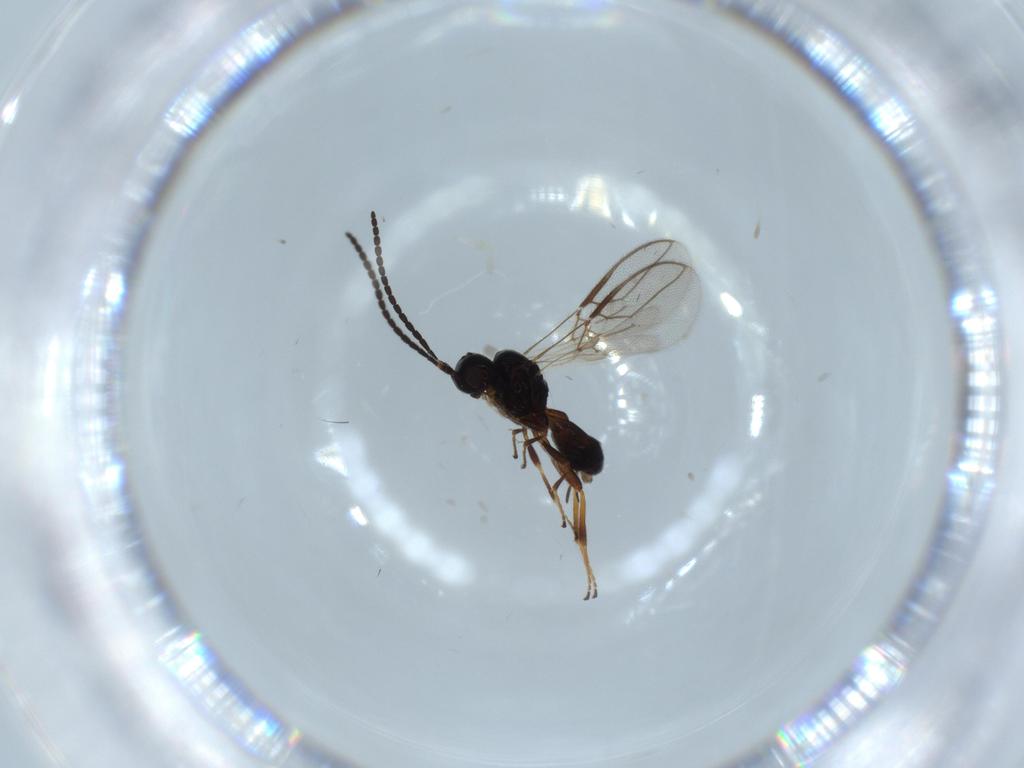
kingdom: Animalia
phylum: Arthropoda
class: Insecta
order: Hymenoptera
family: Braconidae
